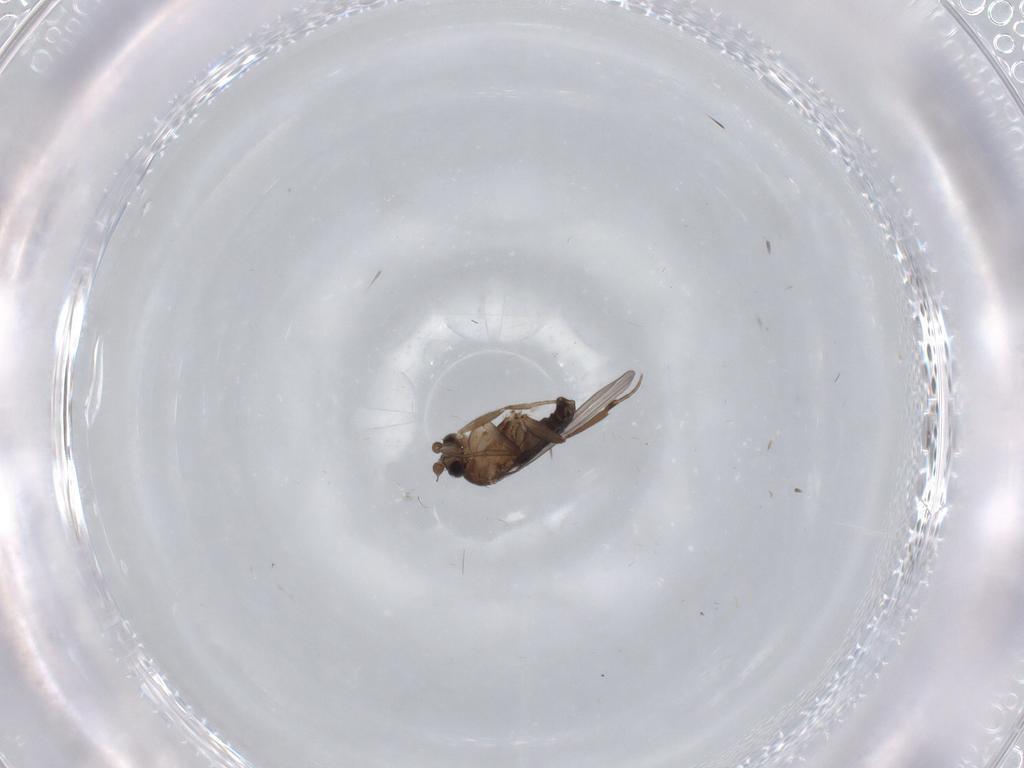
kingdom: Animalia
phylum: Arthropoda
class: Insecta
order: Diptera
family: Phoridae
